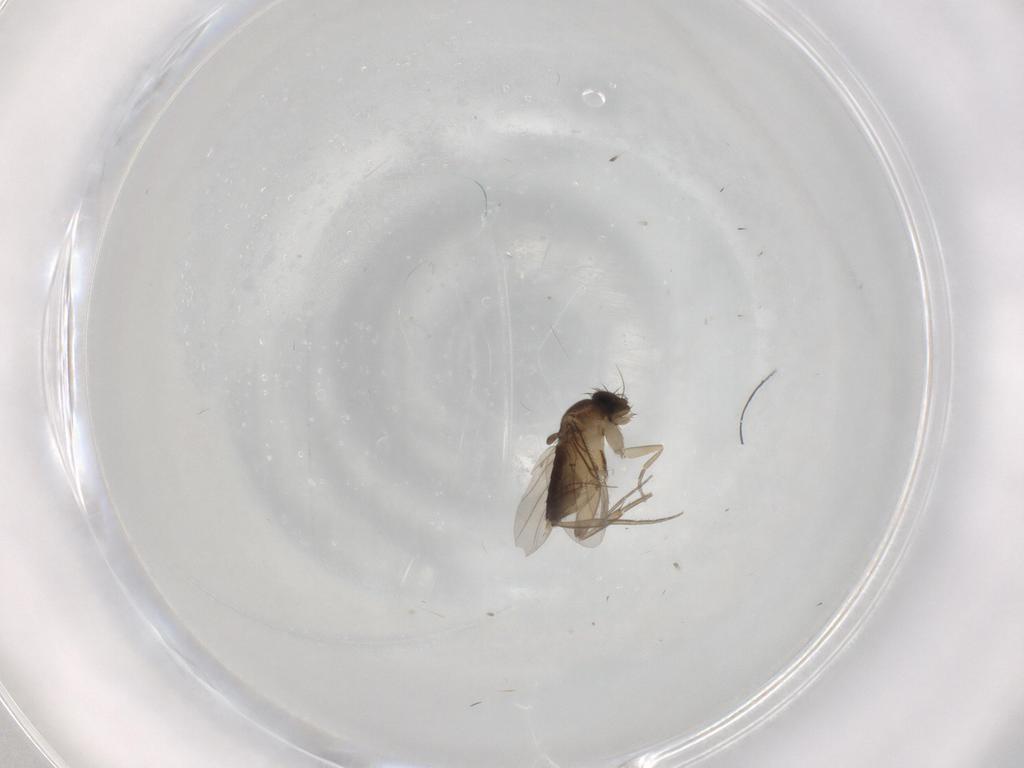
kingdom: Animalia
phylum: Arthropoda
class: Insecta
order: Diptera
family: Phoridae
